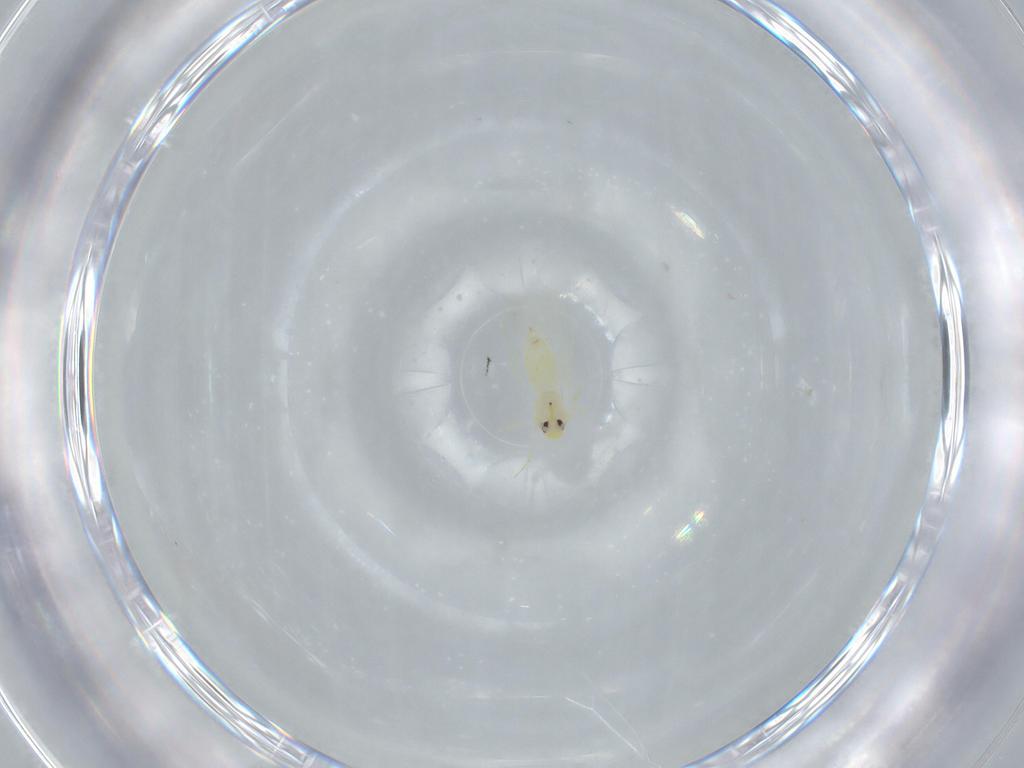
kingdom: Animalia
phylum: Arthropoda
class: Insecta
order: Hemiptera
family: Aleyrodidae
